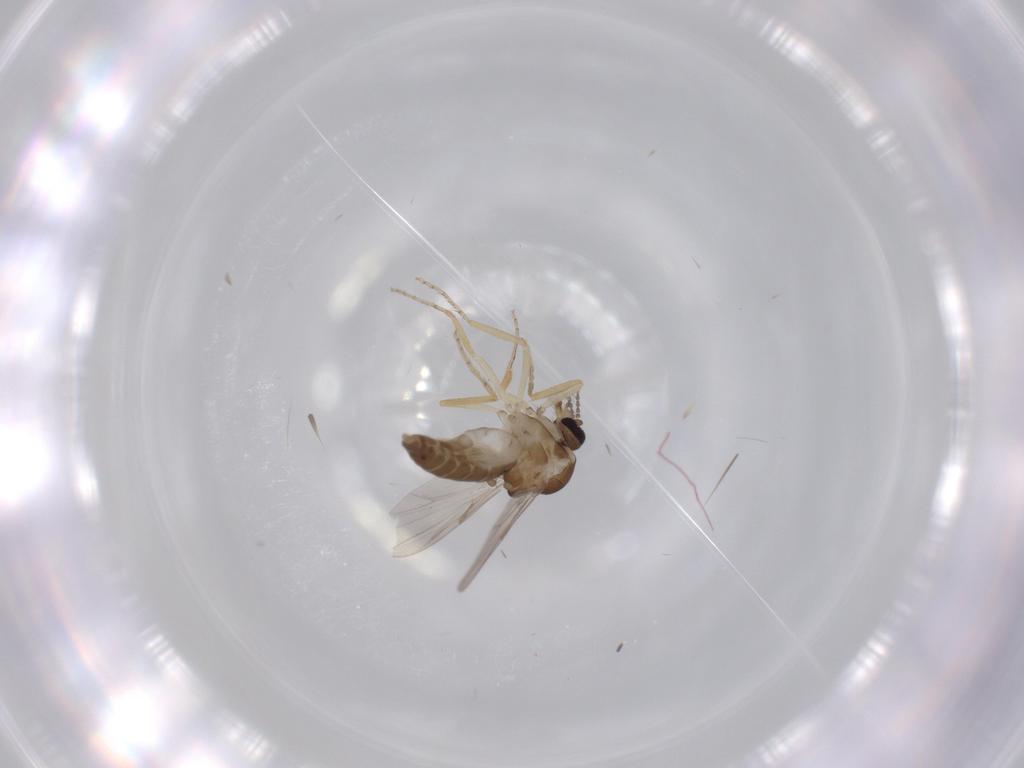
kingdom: Animalia
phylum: Arthropoda
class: Insecta
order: Diptera
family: Ceratopogonidae
